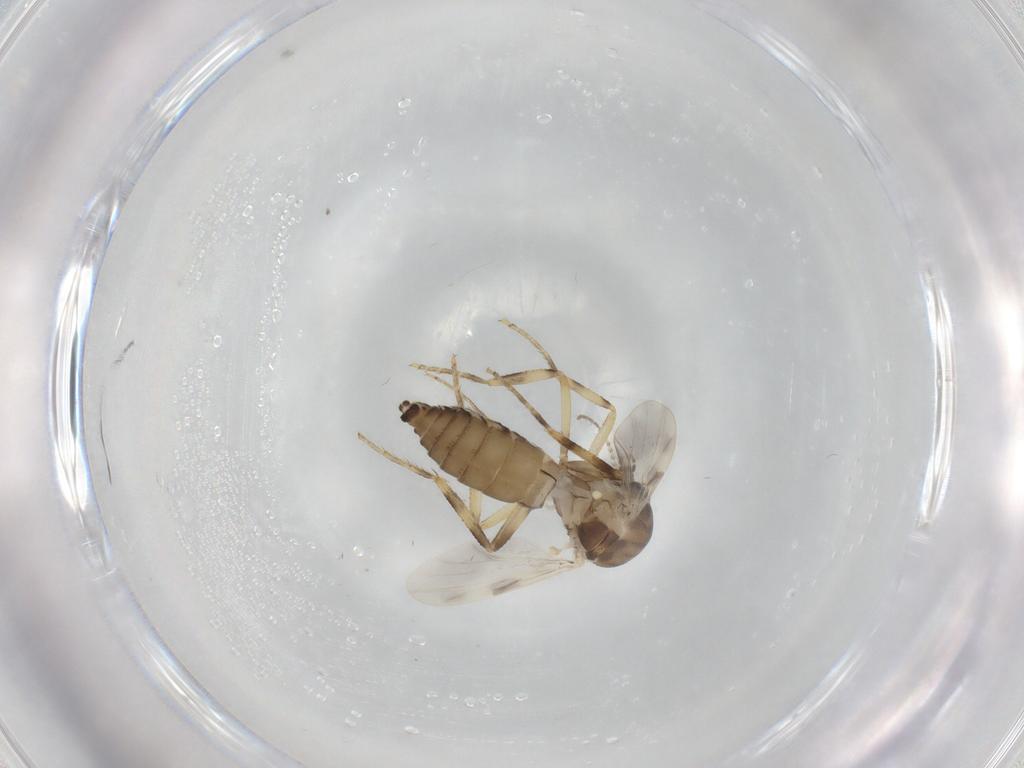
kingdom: Animalia
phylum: Arthropoda
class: Insecta
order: Diptera
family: Ceratopogonidae
